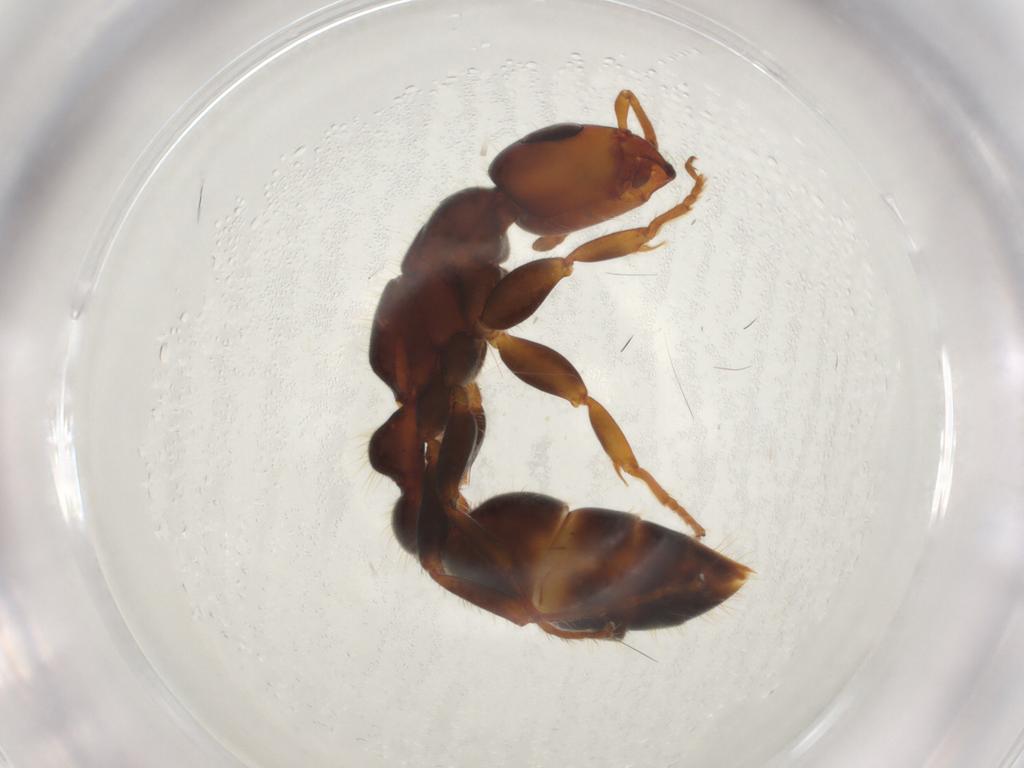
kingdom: Animalia
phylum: Arthropoda
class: Insecta
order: Hymenoptera
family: Formicidae
